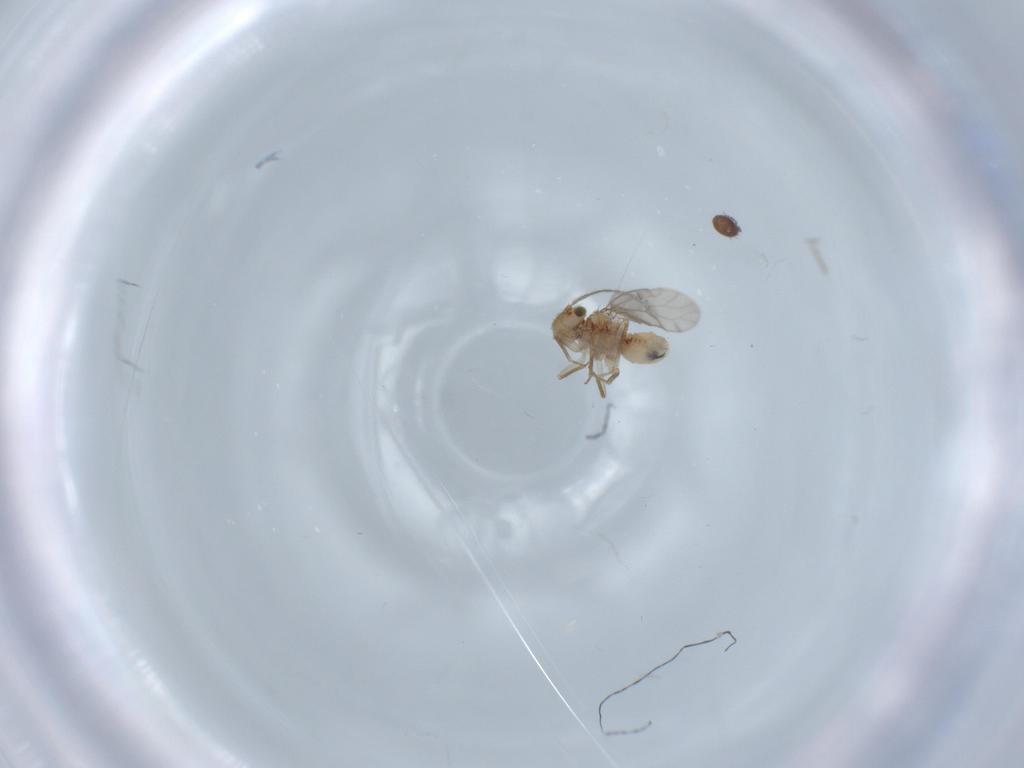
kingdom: Animalia
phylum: Arthropoda
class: Insecta
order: Psocodea
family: Ectopsocidae
